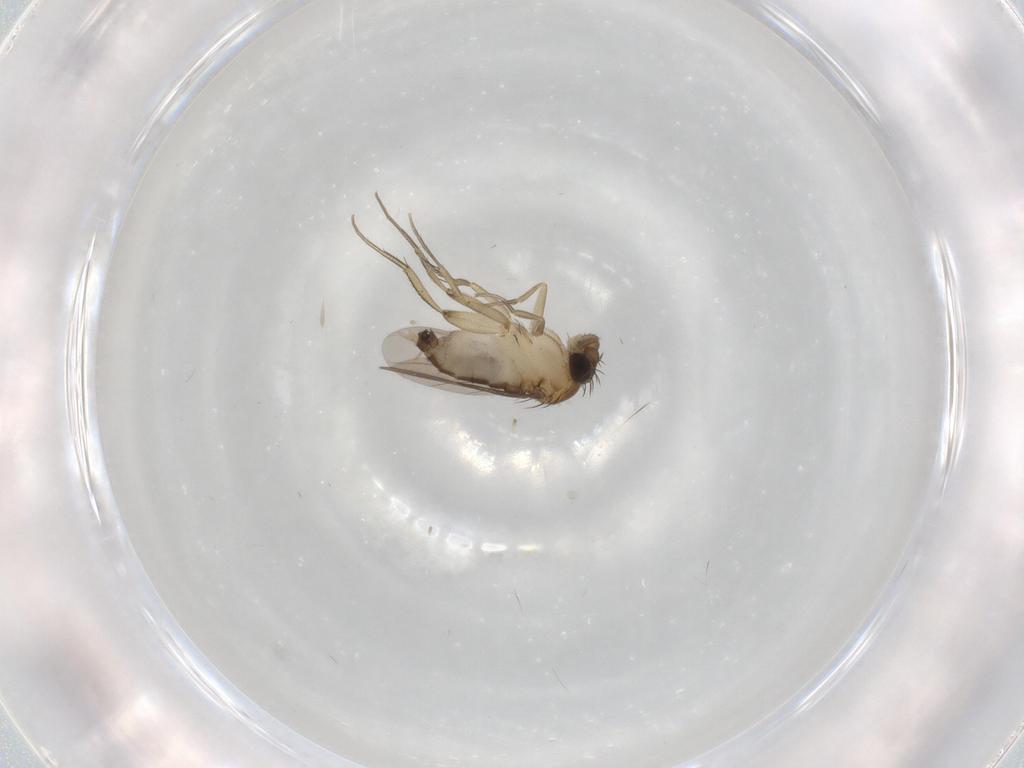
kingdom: Animalia
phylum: Arthropoda
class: Insecta
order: Diptera
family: Phoridae
